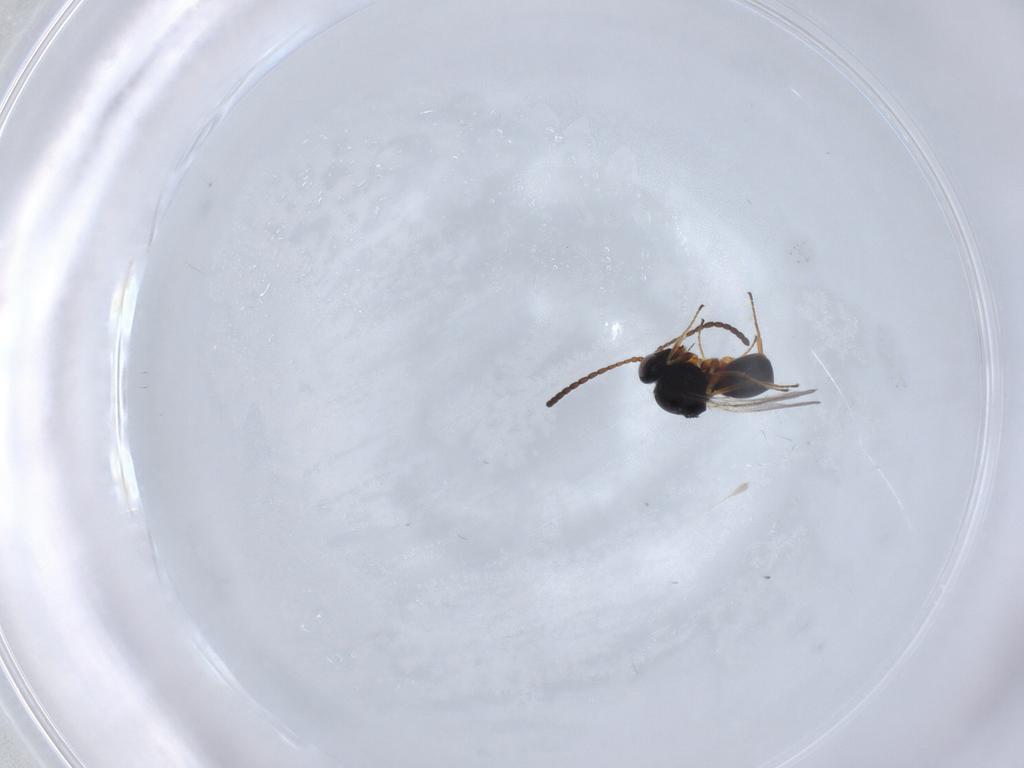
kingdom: Animalia
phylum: Arthropoda
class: Insecta
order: Hymenoptera
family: Figitidae
